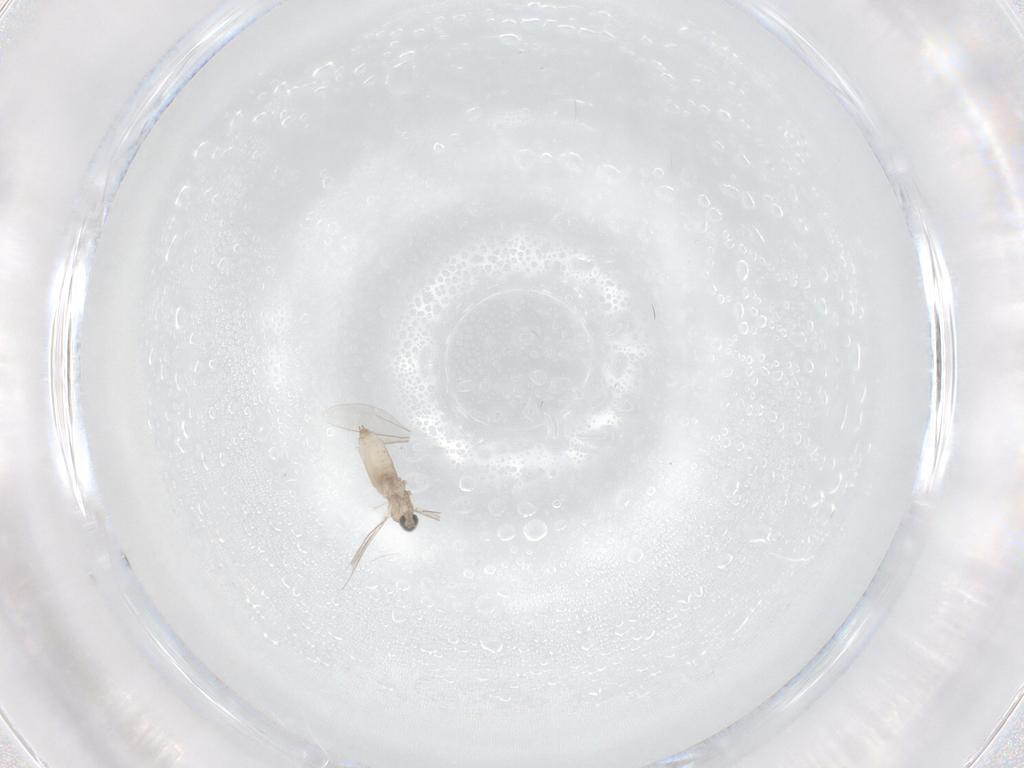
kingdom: Animalia
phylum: Arthropoda
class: Insecta
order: Diptera
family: Cecidomyiidae
